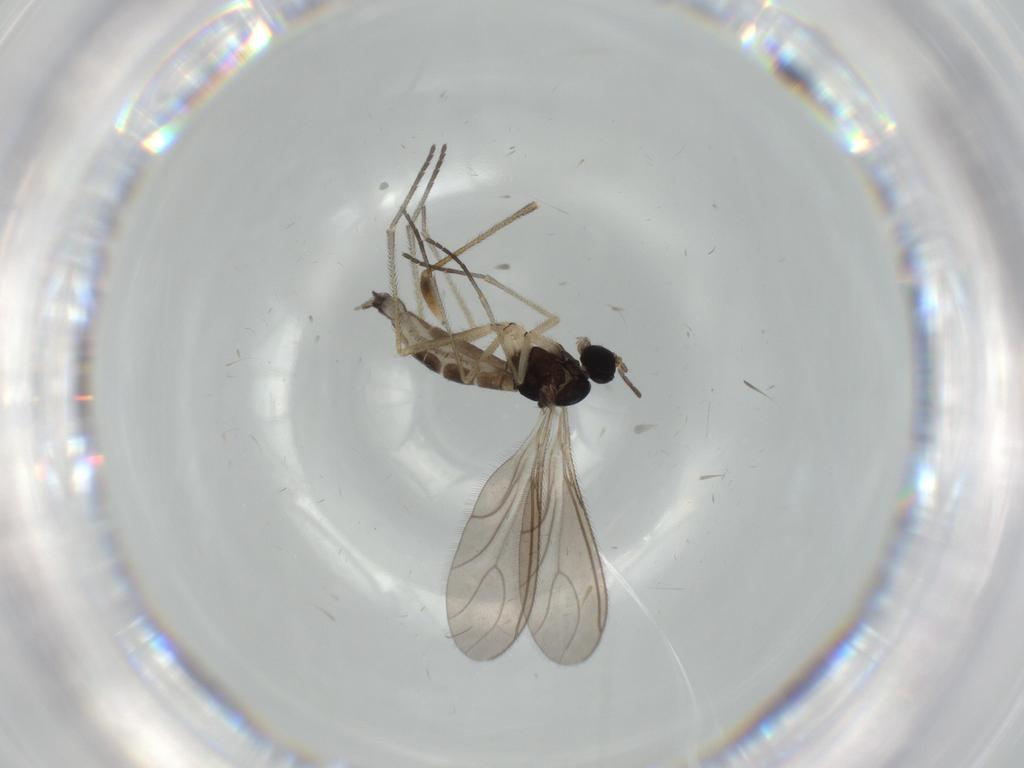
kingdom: Animalia
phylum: Arthropoda
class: Insecta
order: Diptera
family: Sciaridae
